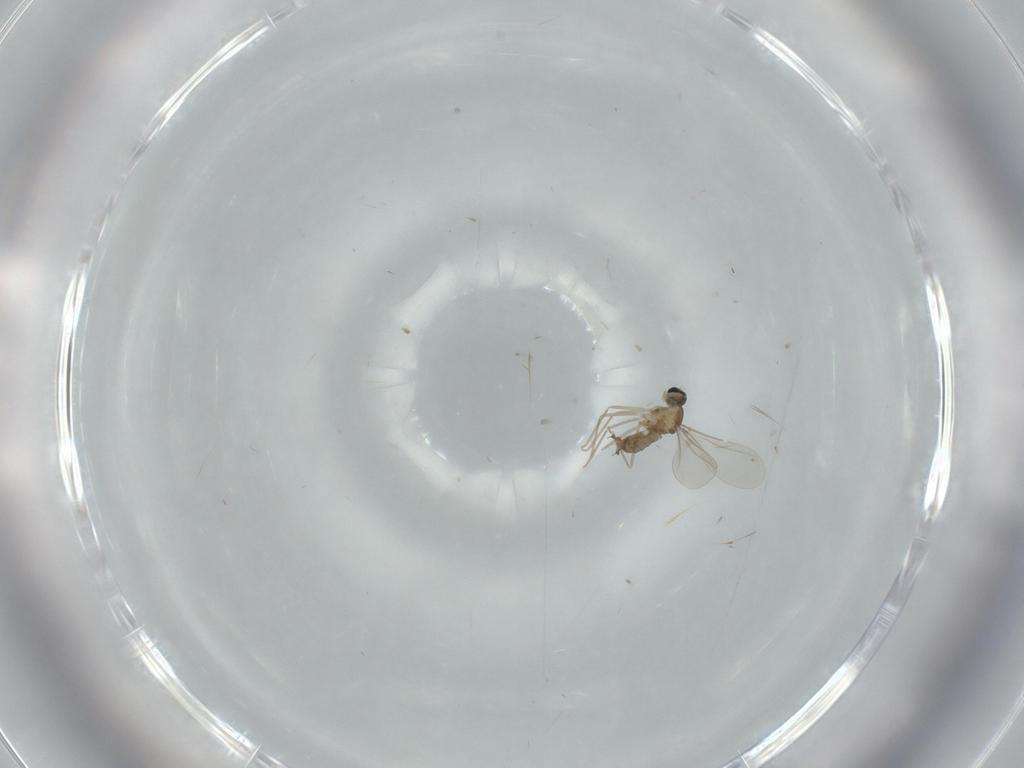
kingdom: Animalia
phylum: Arthropoda
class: Insecta
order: Diptera
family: Cecidomyiidae
